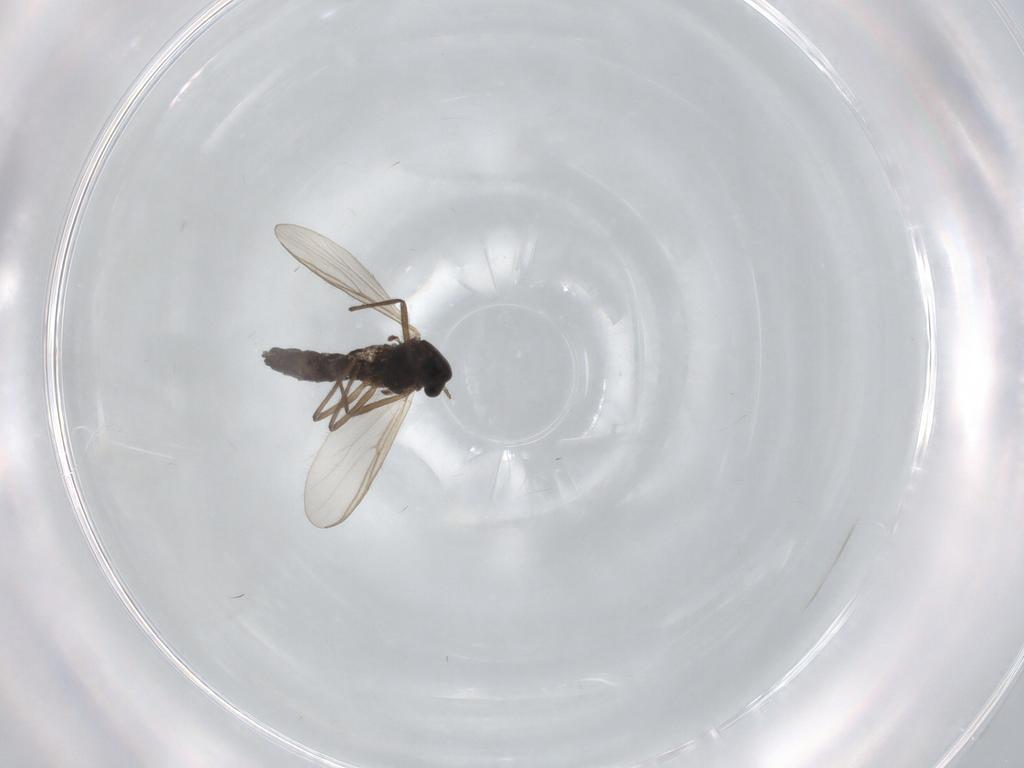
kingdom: Animalia
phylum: Arthropoda
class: Insecta
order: Diptera
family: Chironomidae
